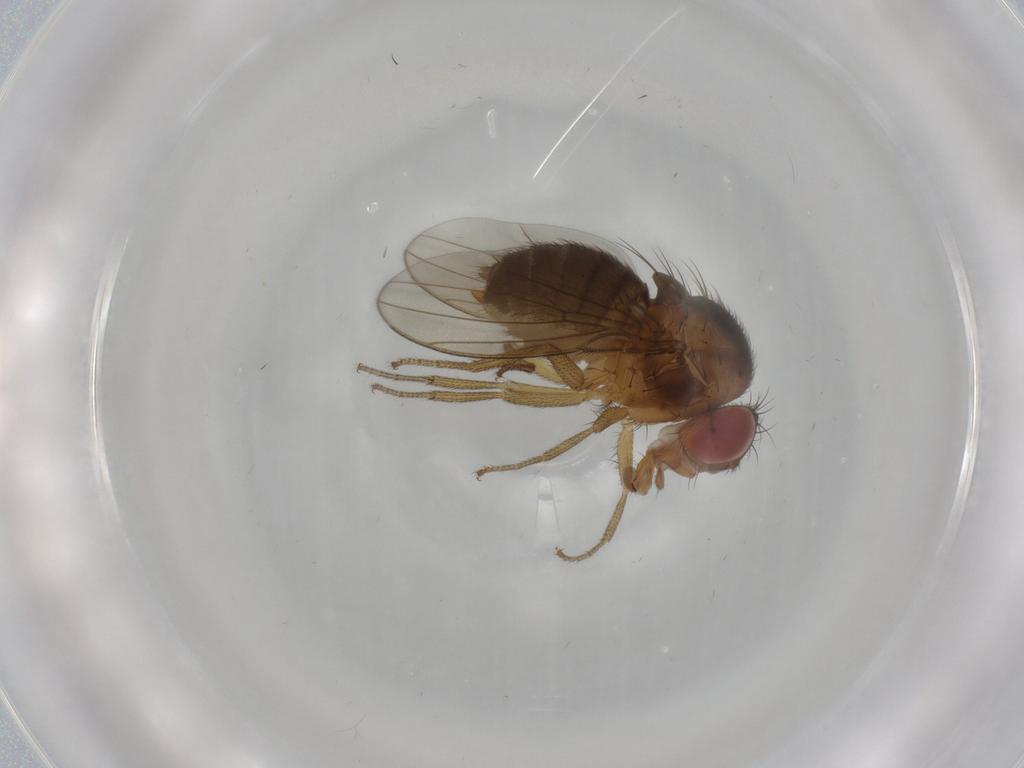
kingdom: Animalia
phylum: Arthropoda
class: Insecta
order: Diptera
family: Drosophilidae
